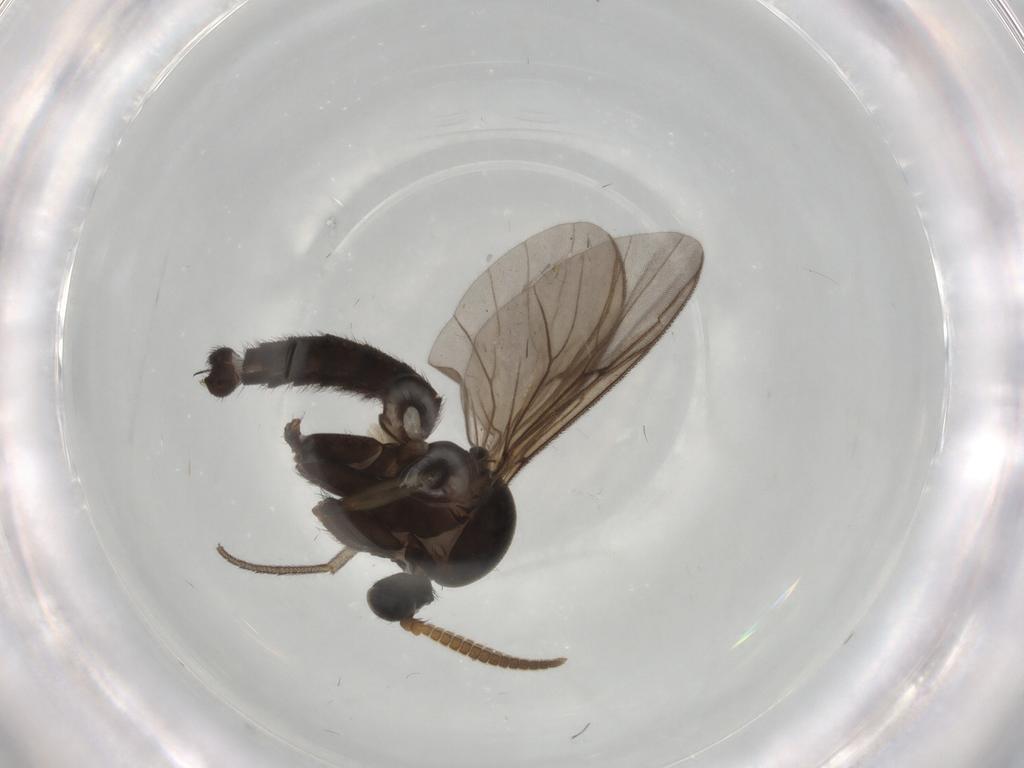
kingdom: Animalia
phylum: Arthropoda
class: Insecta
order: Diptera
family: Mycetophilidae
